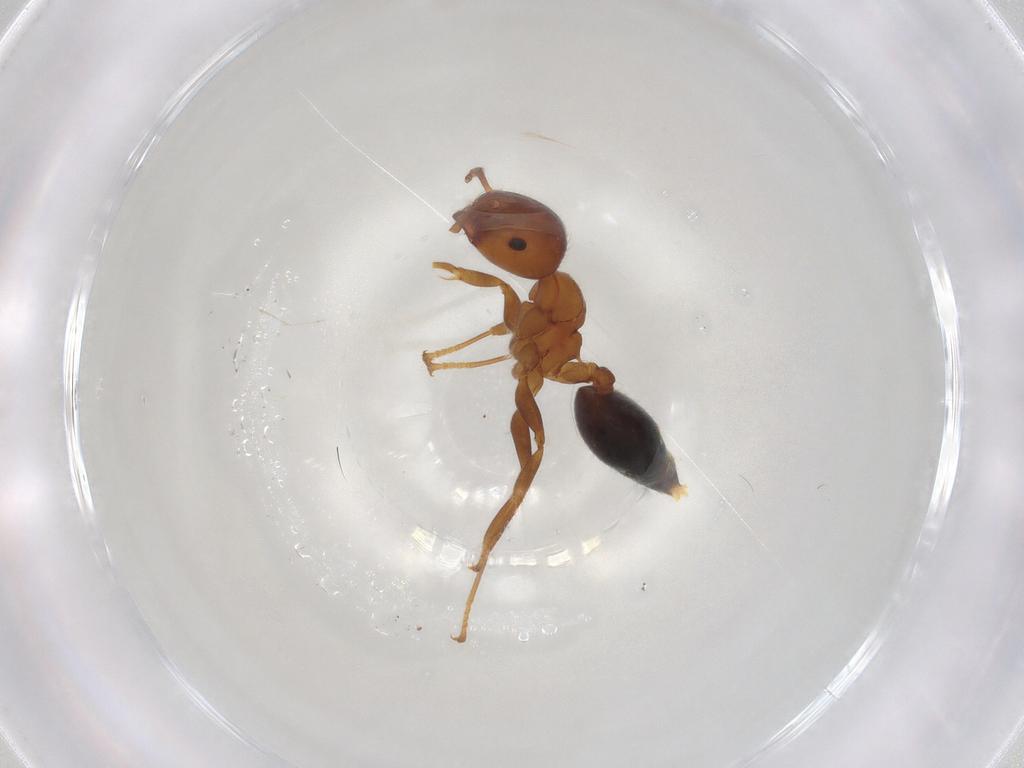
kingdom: Animalia
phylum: Arthropoda
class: Insecta
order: Hymenoptera
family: Formicidae
